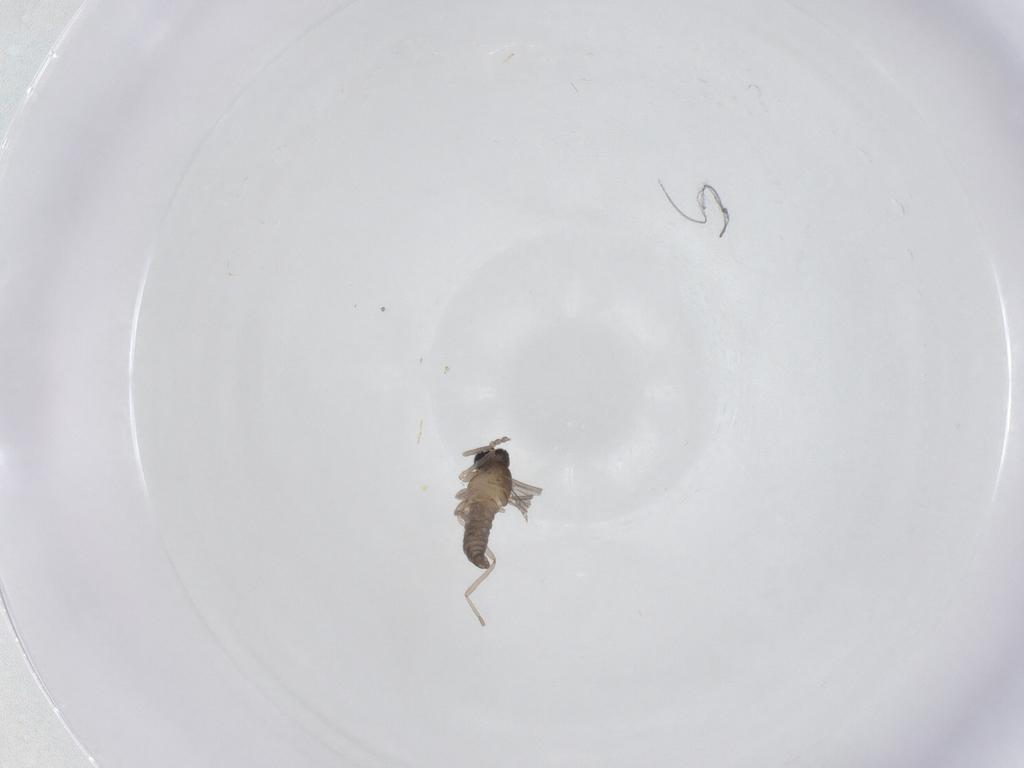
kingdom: Animalia
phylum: Arthropoda
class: Insecta
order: Diptera
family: Cecidomyiidae
